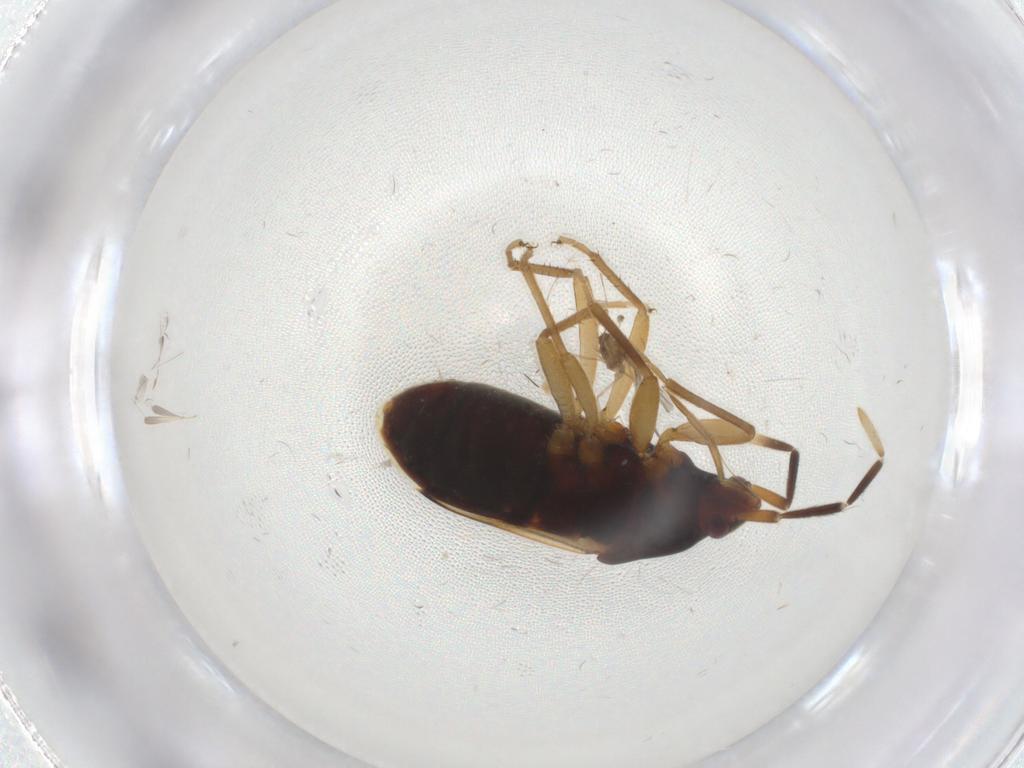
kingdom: Animalia
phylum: Arthropoda
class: Insecta
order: Hemiptera
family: Rhyparochromidae
